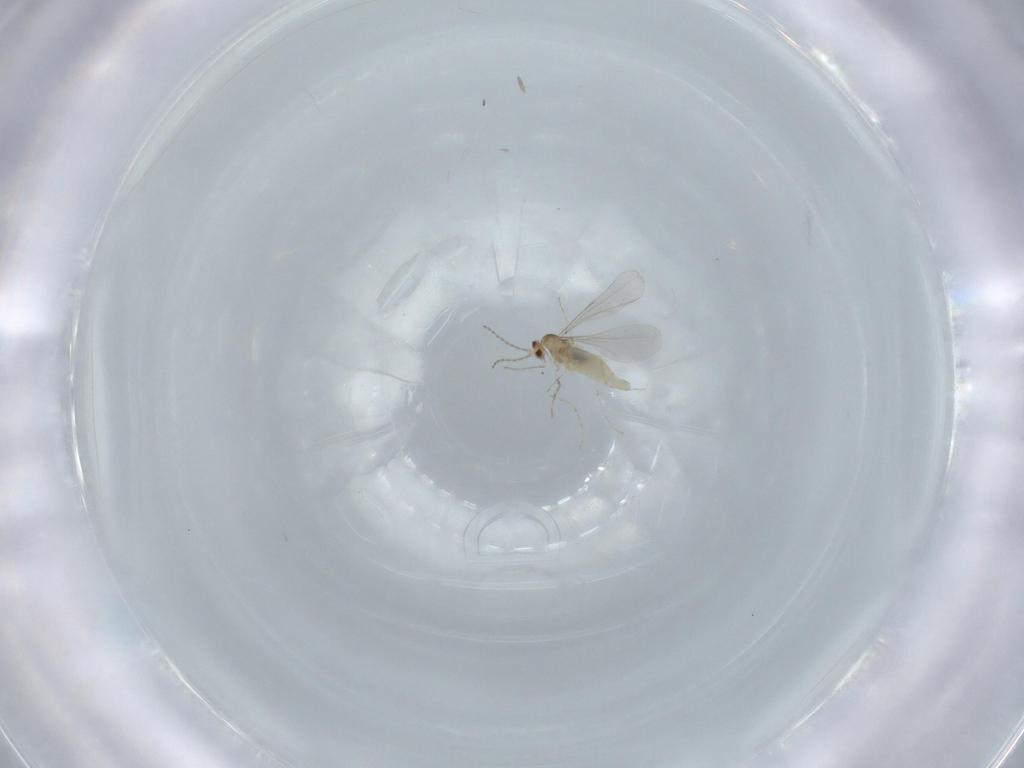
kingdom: Animalia
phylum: Arthropoda
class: Insecta
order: Diptera
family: Cecidomyiidae
